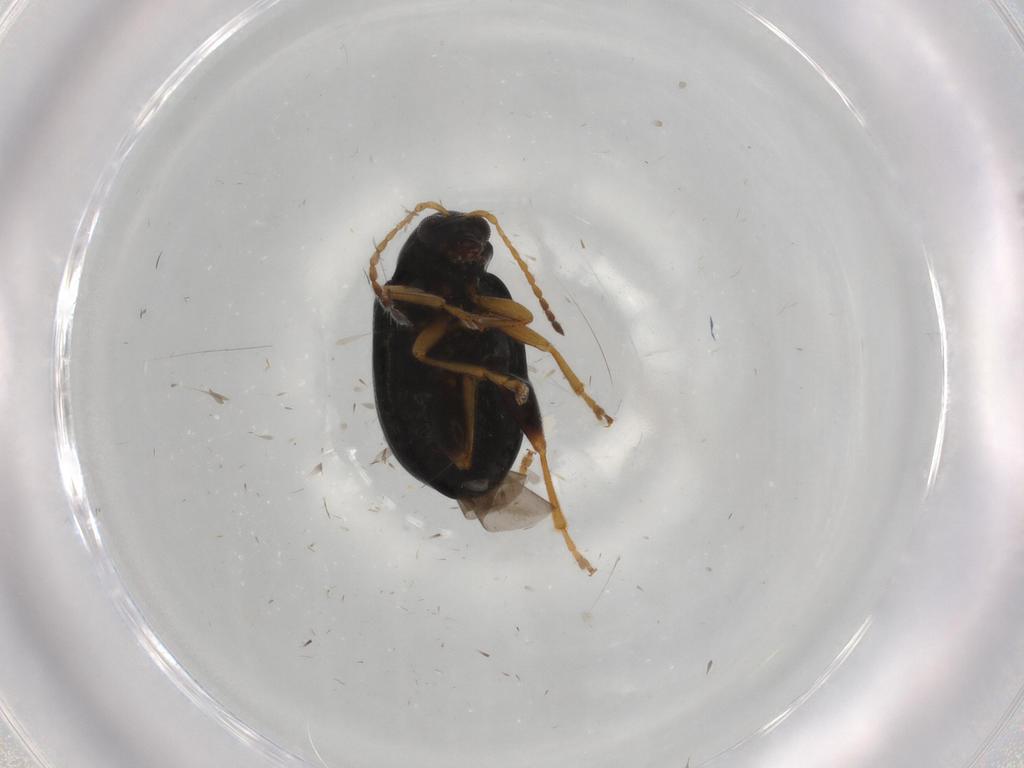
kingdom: Animalia
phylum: Arthropoda
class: Insecta
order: Coleoptera
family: Chrysomelidae
